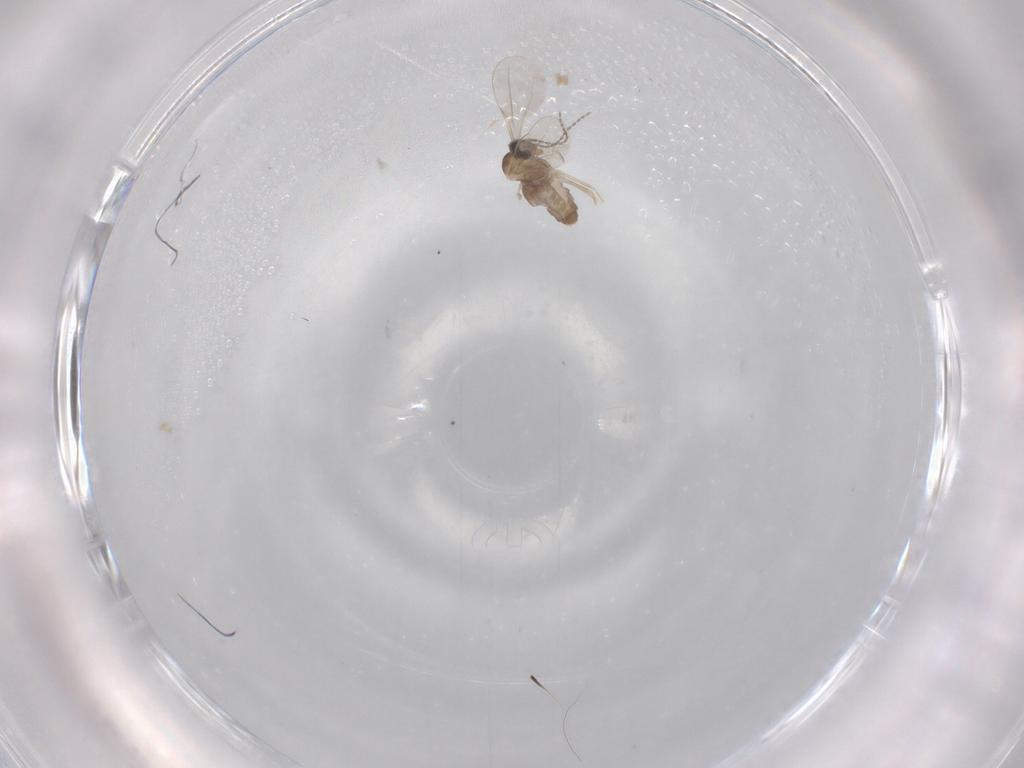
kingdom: Animalia
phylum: Arthropoda
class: Insecta
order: Diptera
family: Cecidomyiidae
